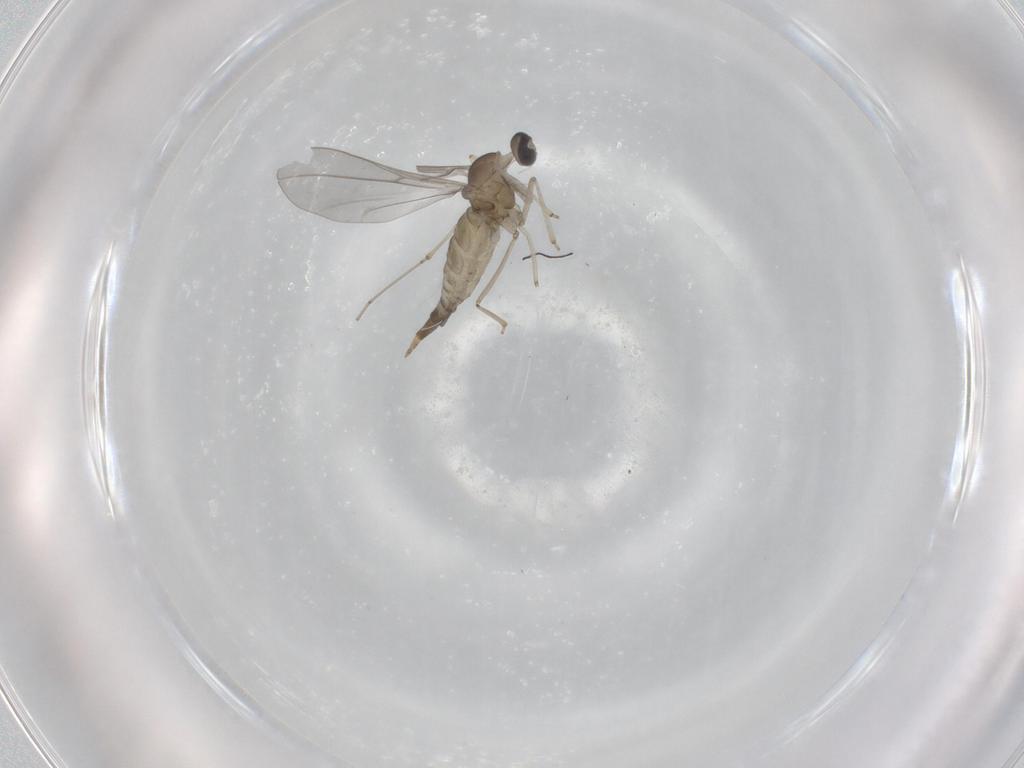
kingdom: Animalia
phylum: Arthropoda
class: Insecta
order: Diptera
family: Cecidomyiidae
